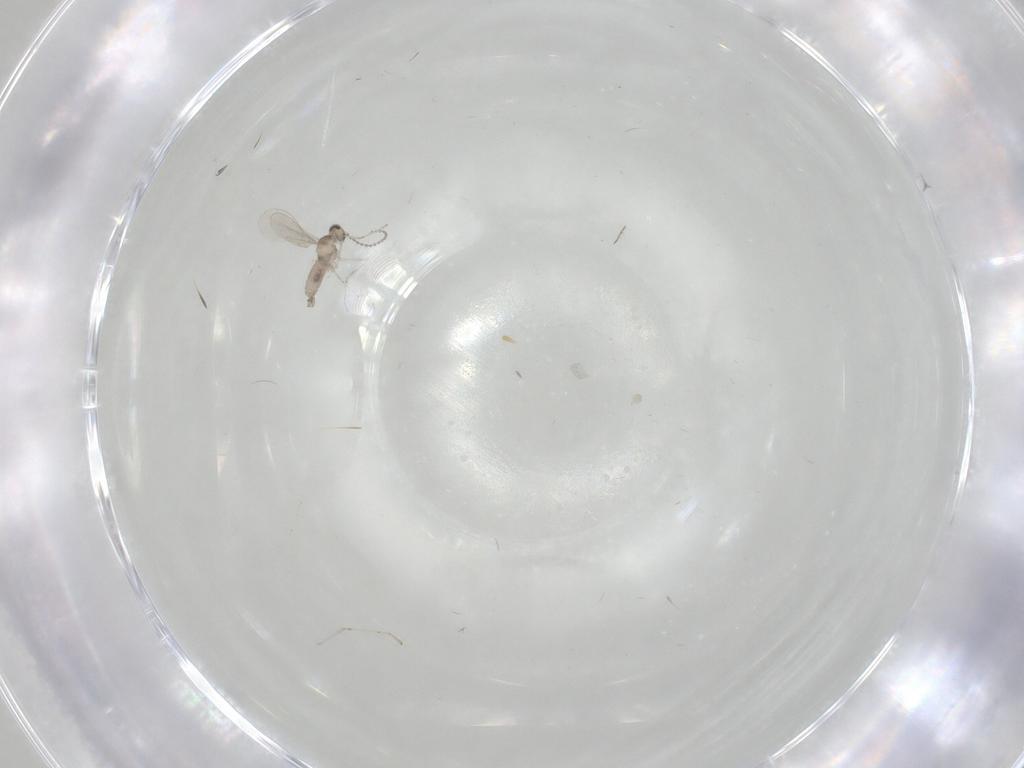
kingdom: Animalia
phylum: Arthropoda
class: Insecta
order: Diptera
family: Cecidomyiidae
